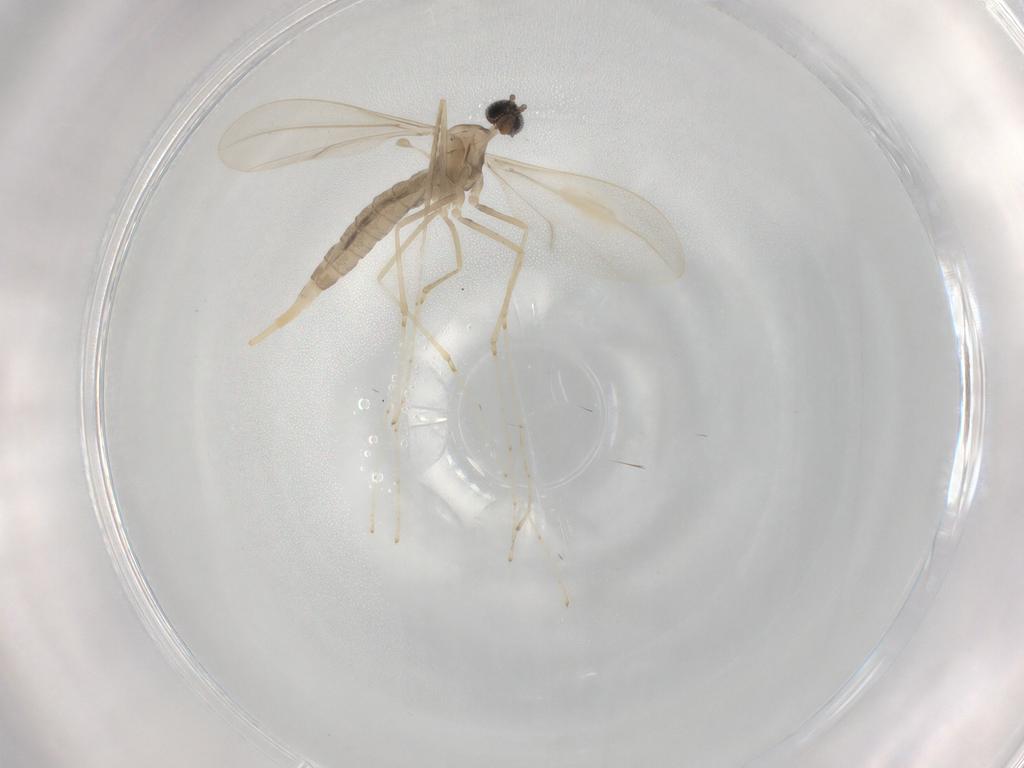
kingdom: Animalia
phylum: Arthropoda
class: Insecta
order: Diptera
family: Cecidomyiidae
